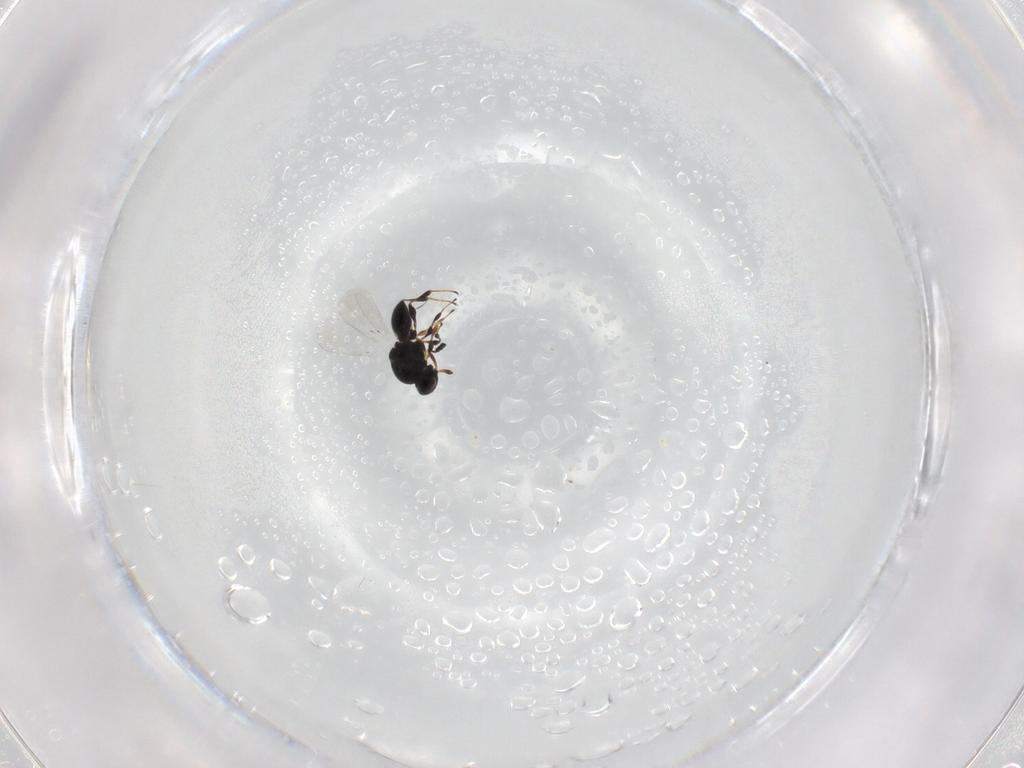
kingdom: Animalia
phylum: Arthropoda
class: Insecta
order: Hymenoptera
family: Platygastridae
